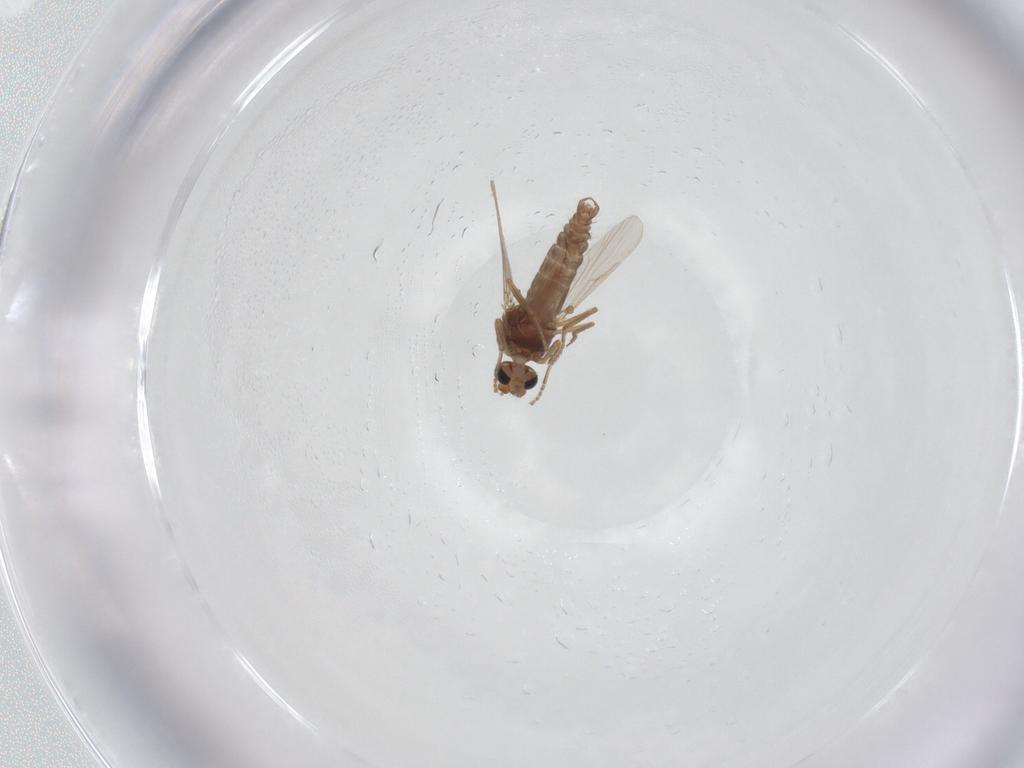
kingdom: Animalia
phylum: Arthropoda
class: Insecta
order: Diptera
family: Ceratopogonidae
